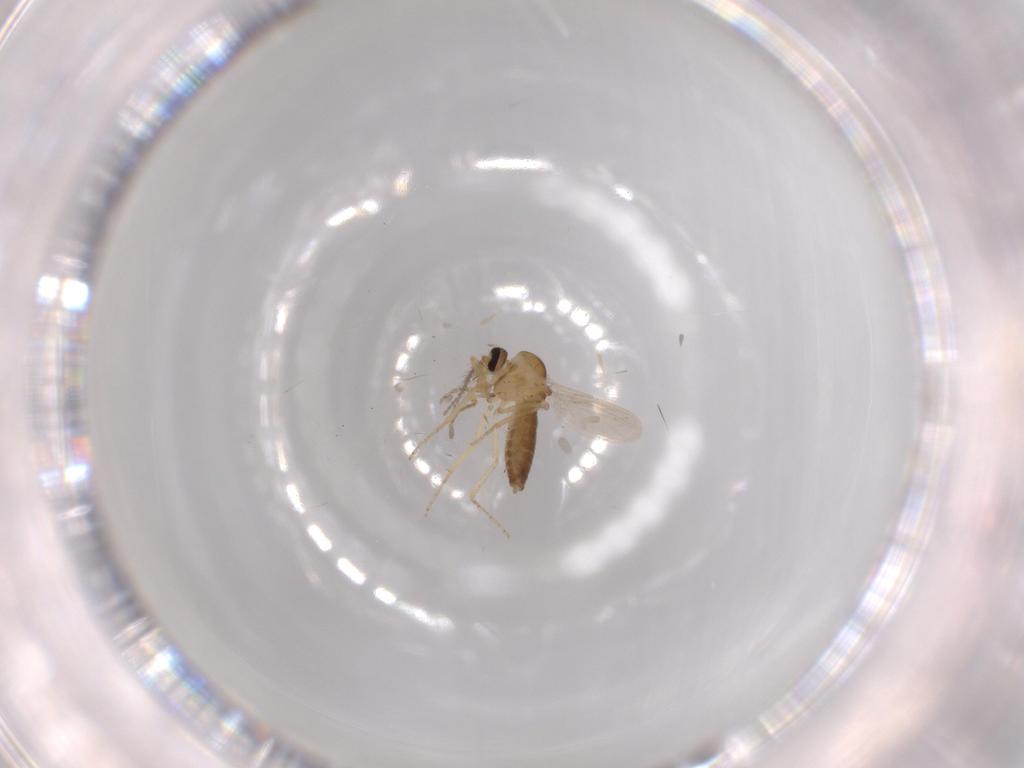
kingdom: Animalia
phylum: Arthropoda
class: Insecta
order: Diptera
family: Ceratopogonidae
